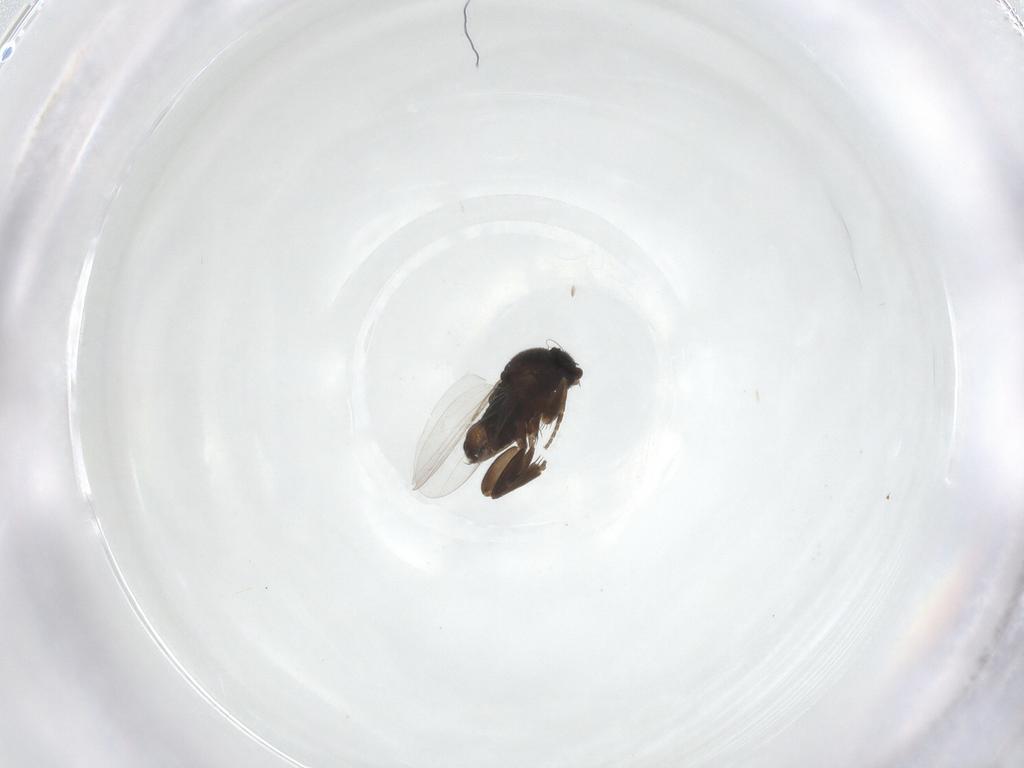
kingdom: Animalia
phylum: Arthropoda
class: Insecta
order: Diptera
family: Phoridae
